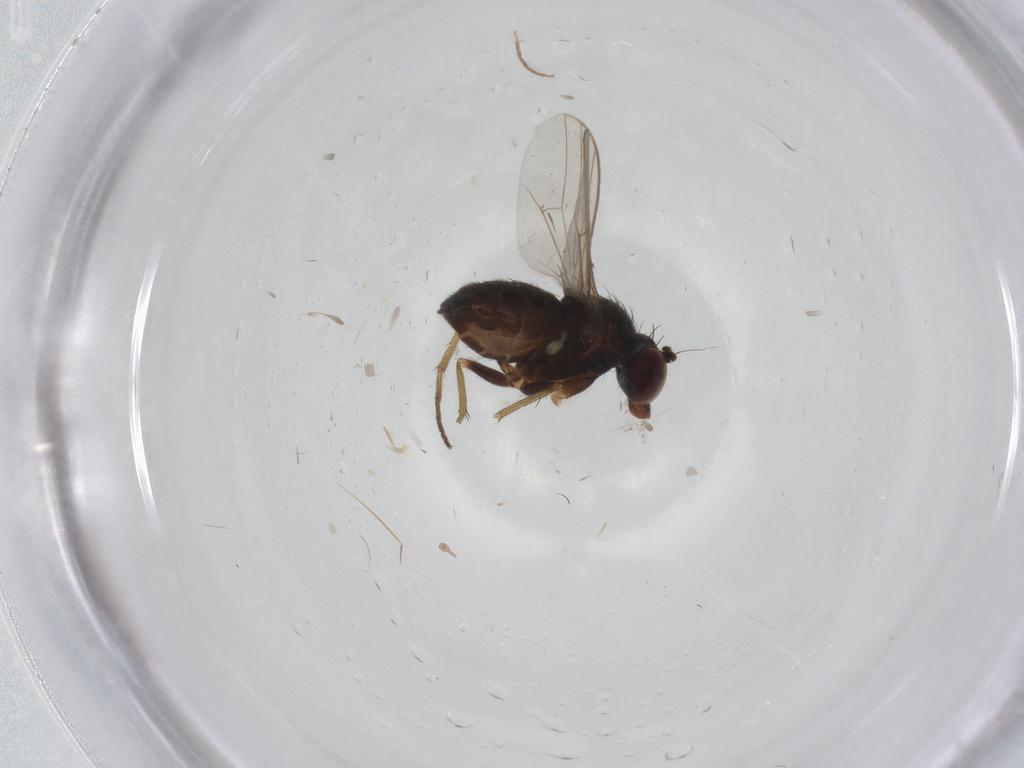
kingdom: Animalia
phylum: Arthropoda
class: Insecta
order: Diptera
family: Dolichopodidae
